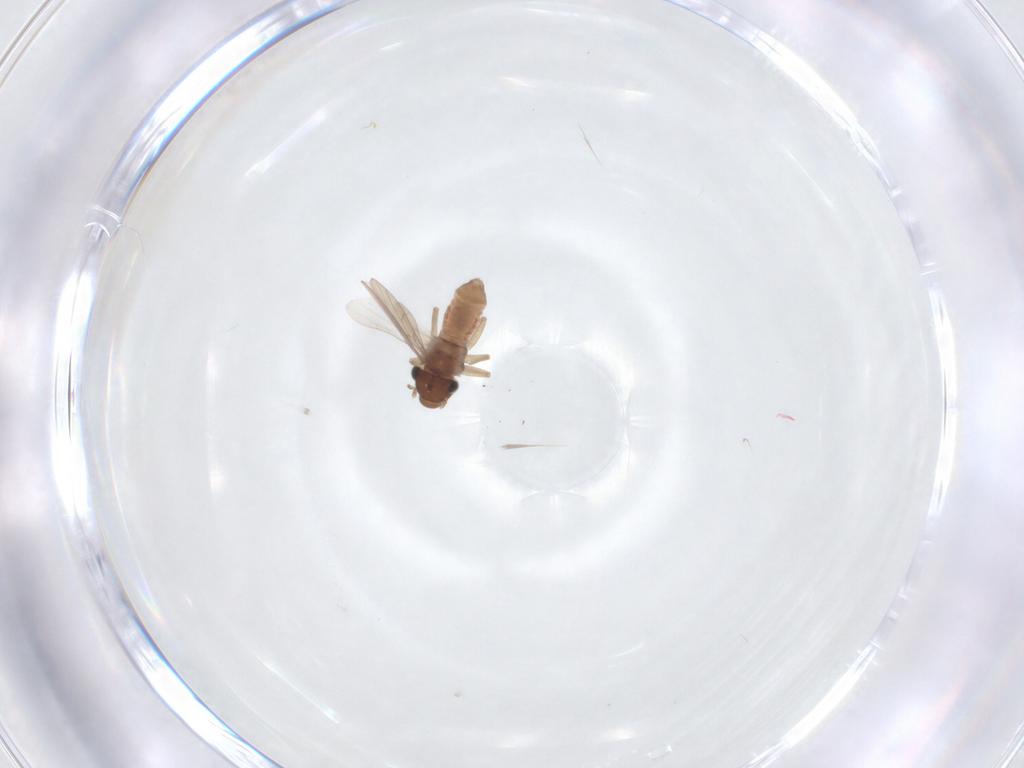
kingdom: Animalia
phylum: Arthropoda
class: Insecta
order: Psocodea
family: Lepidopsocidae
